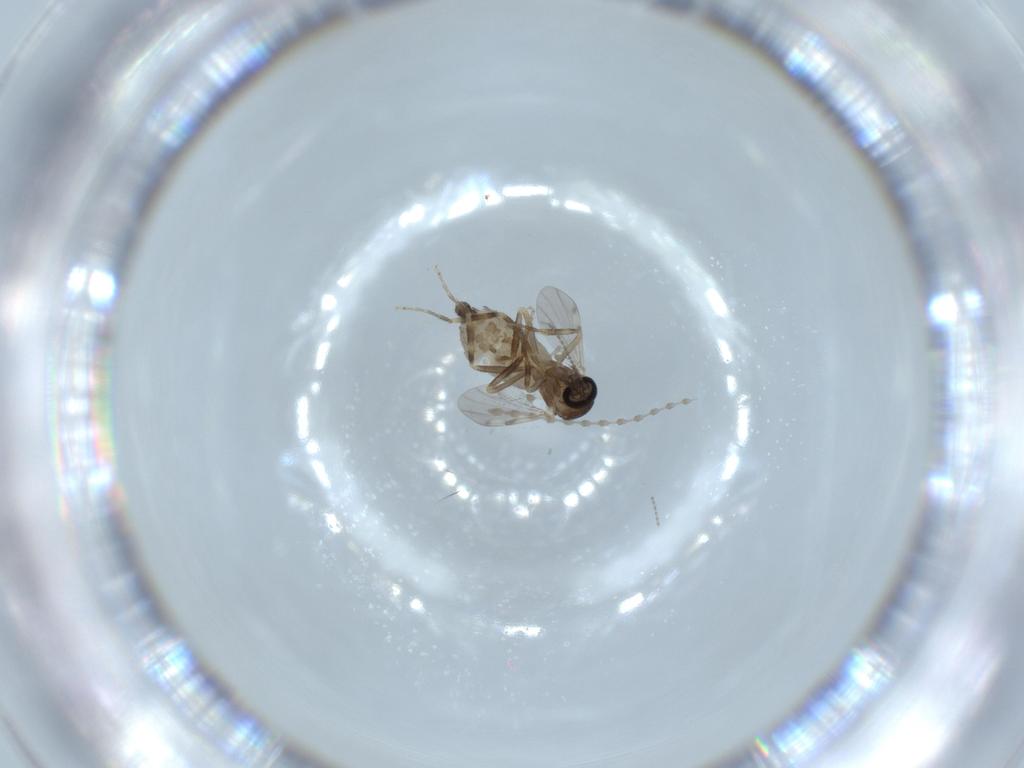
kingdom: Animalia
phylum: Arthropoda
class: Insecta
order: Diptera
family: Ceratopogonidae
